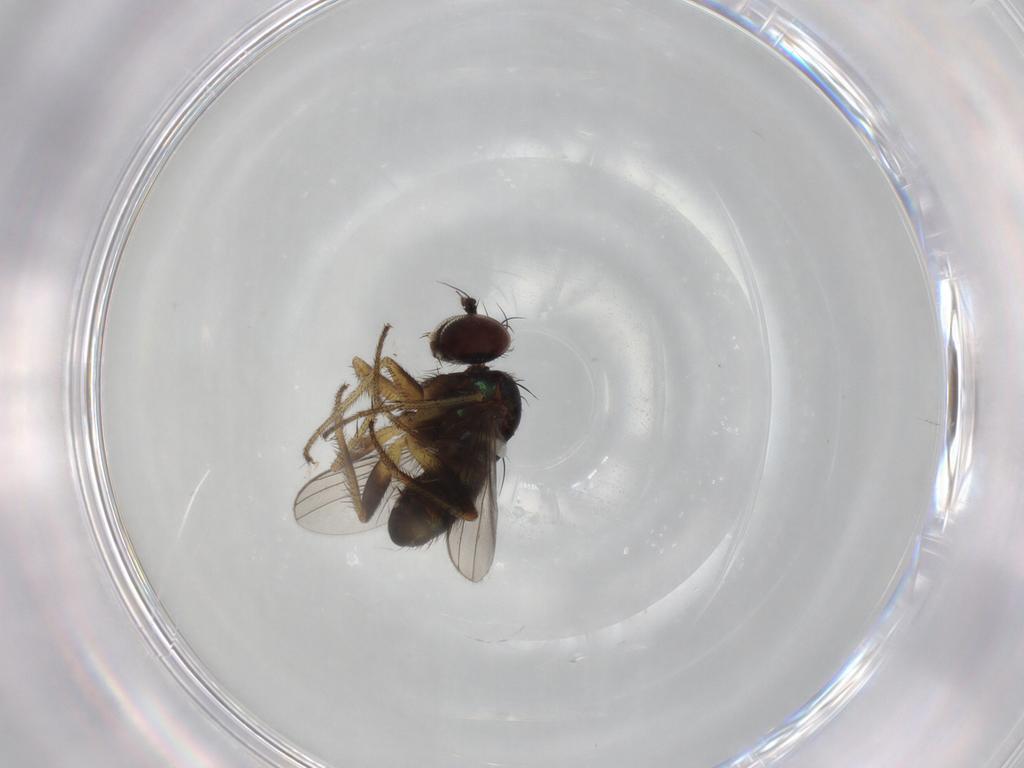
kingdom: Animalia
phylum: Arthropoda
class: Insecta
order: Diptera
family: Dolichopodidae
